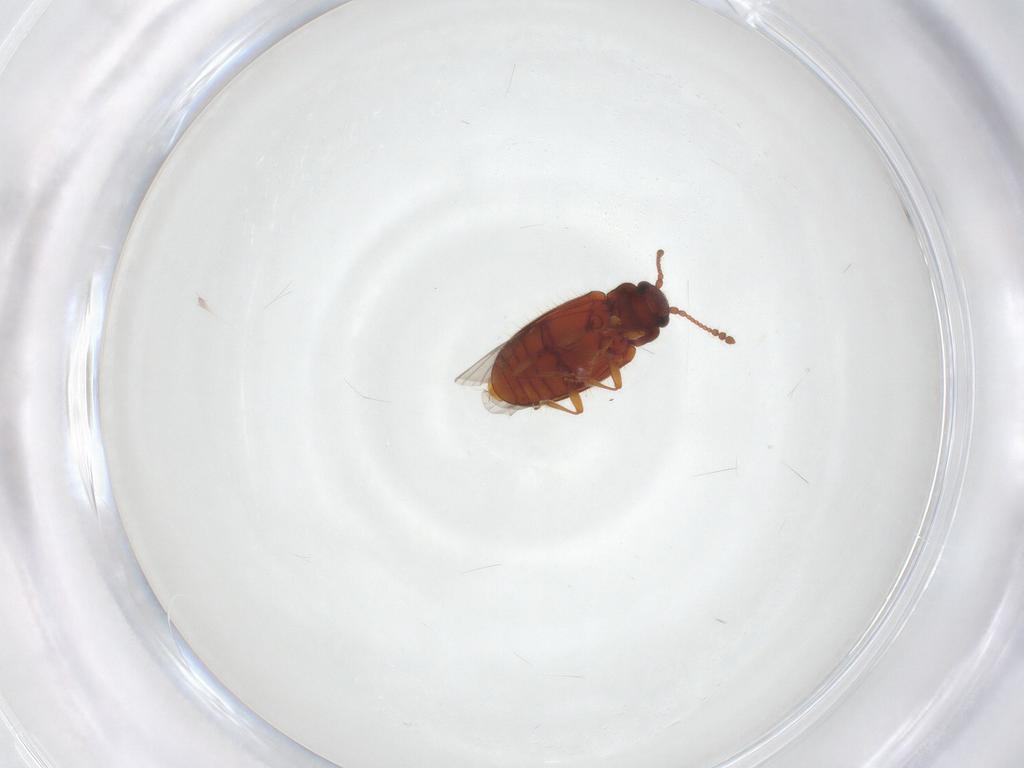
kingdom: Animalia
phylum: Arthropoda
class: Insecta
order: Coleoptera
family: Cryptophagidae
